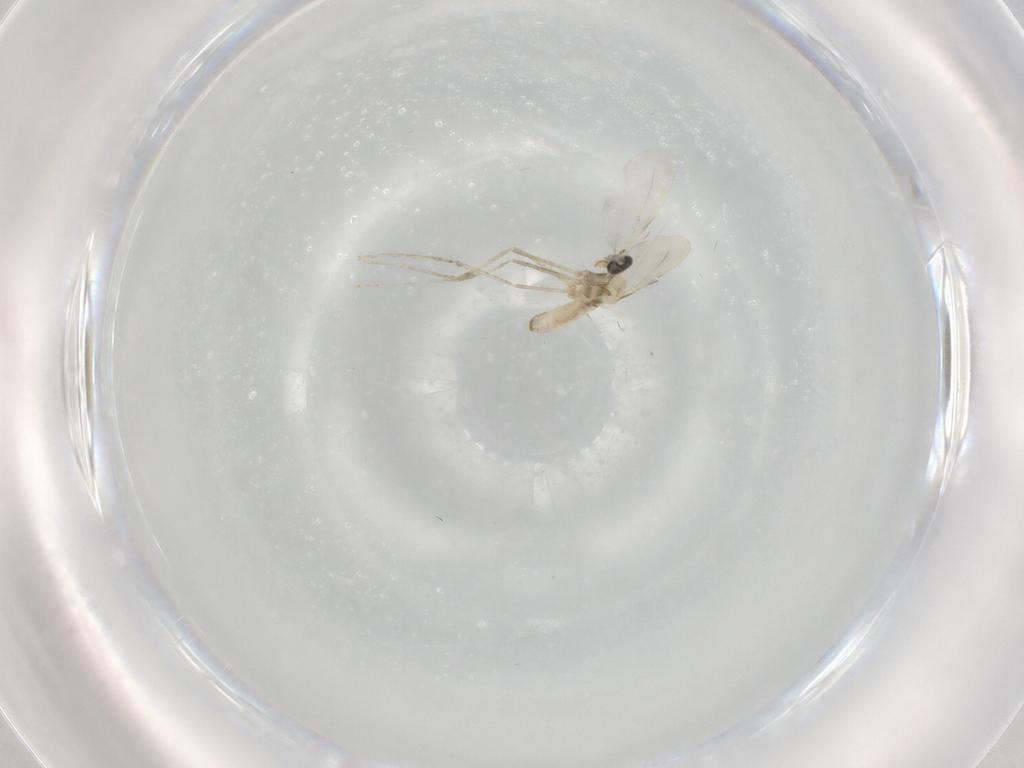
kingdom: Animalia
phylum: Arthropoda
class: Insecta
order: Diptera
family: Cecidomyiidae
